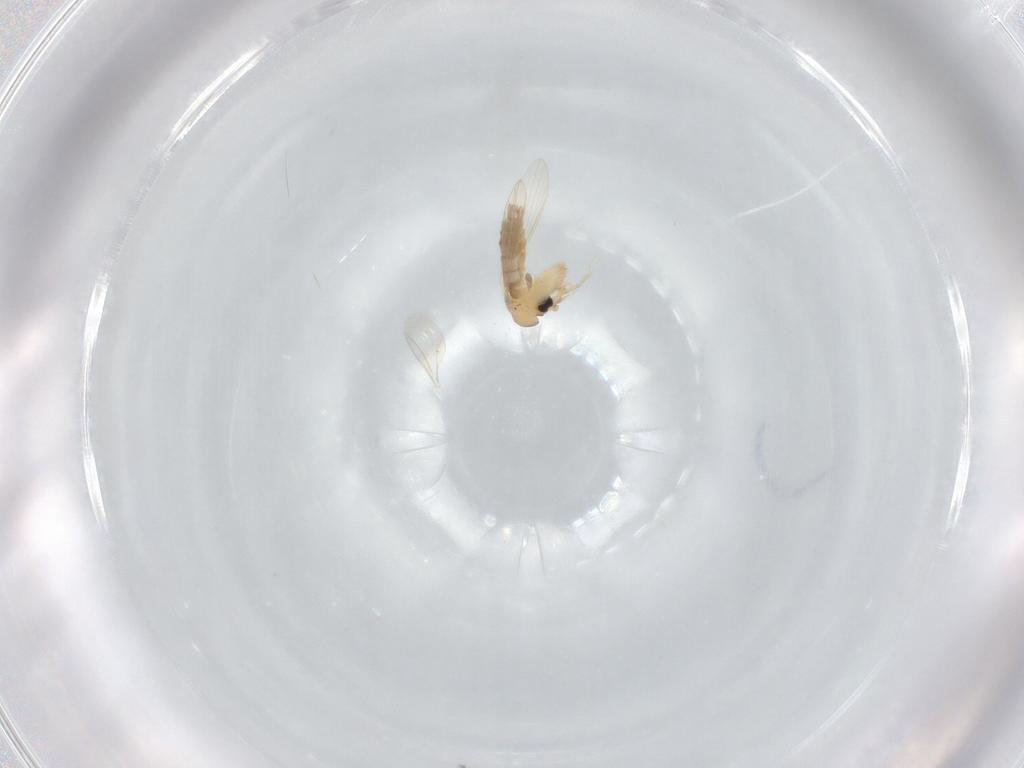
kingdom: Animalia
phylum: Arthropoda
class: Insecta
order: Diptera
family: Psychodidae
